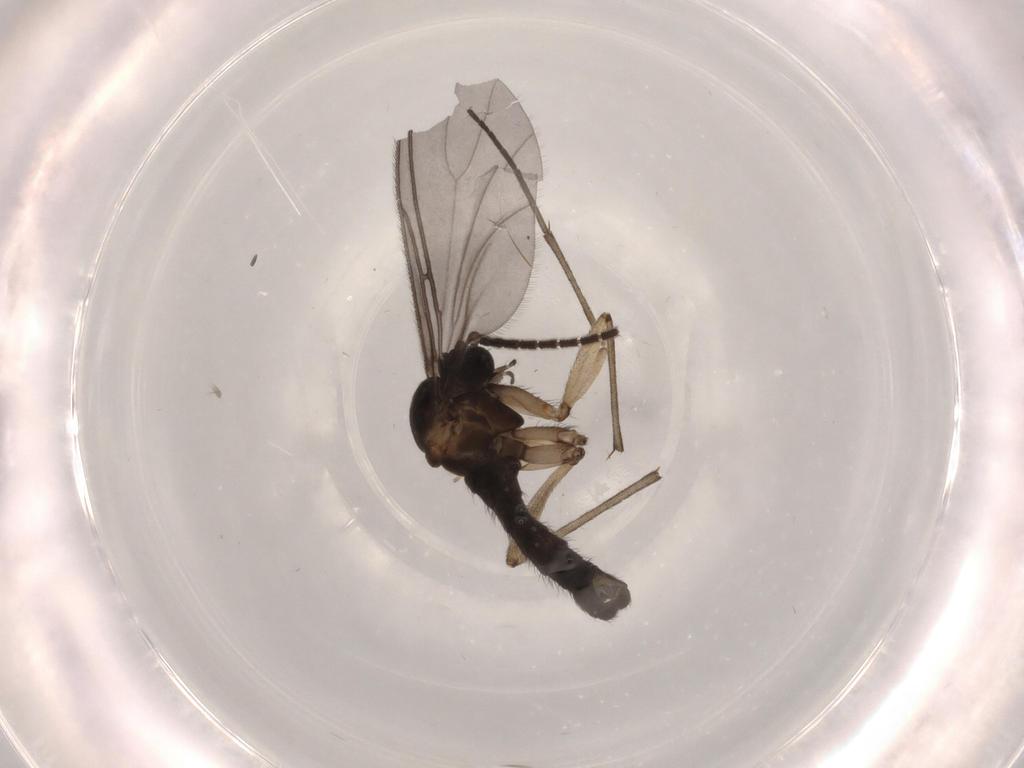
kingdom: Animalia
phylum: Arthropoda
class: Insecta
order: Diptera
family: Sciaridae
